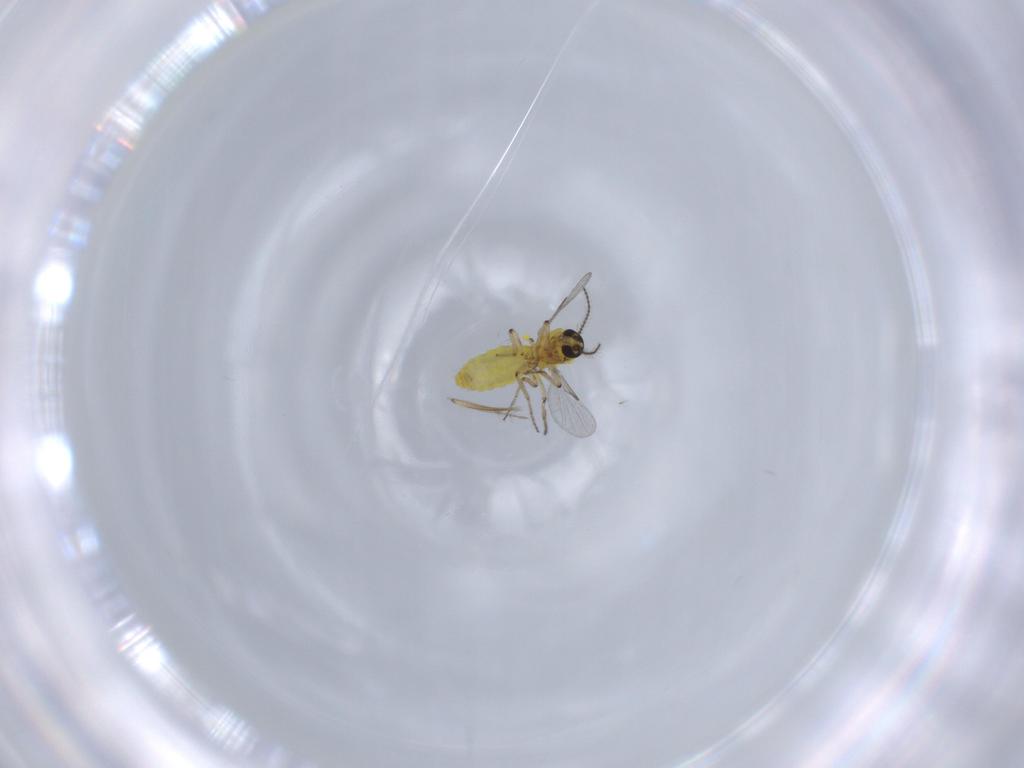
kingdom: Animalia
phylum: Arthropoda
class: Insecta
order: Diptera
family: Ceratopogonidae
